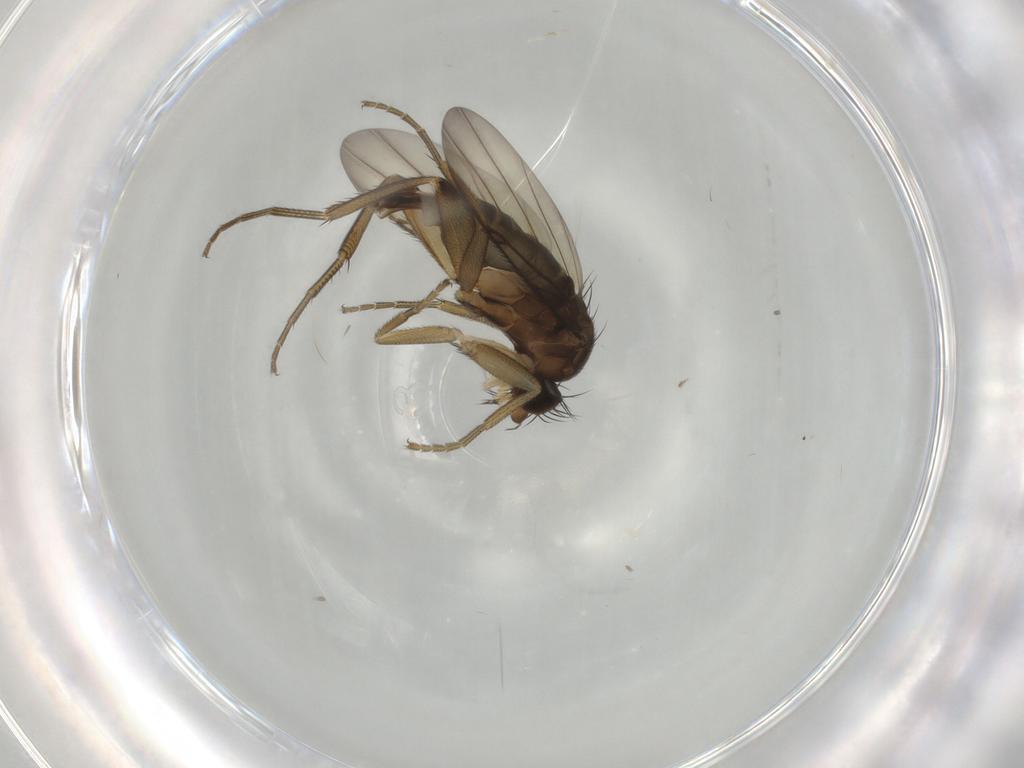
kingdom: Animalia
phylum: Arthropoda
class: Insecta
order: Diptera
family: Phoridae
